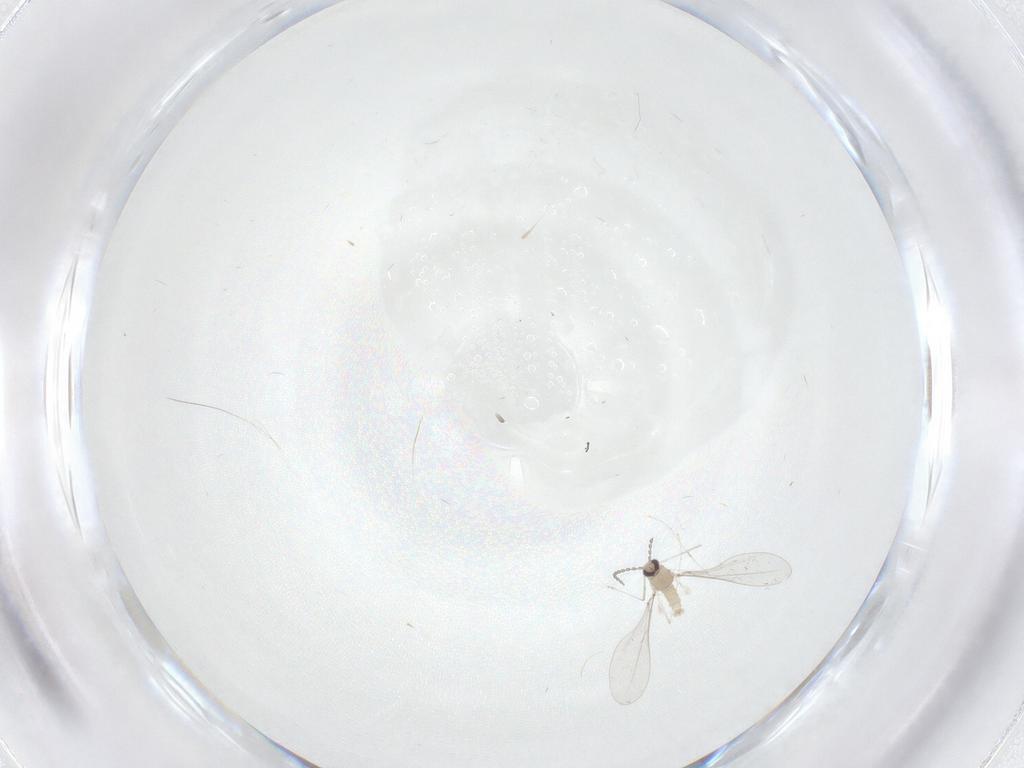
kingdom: Animalia
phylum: Arthropoda
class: Insecta
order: Diptera
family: Cecidomyiidae
